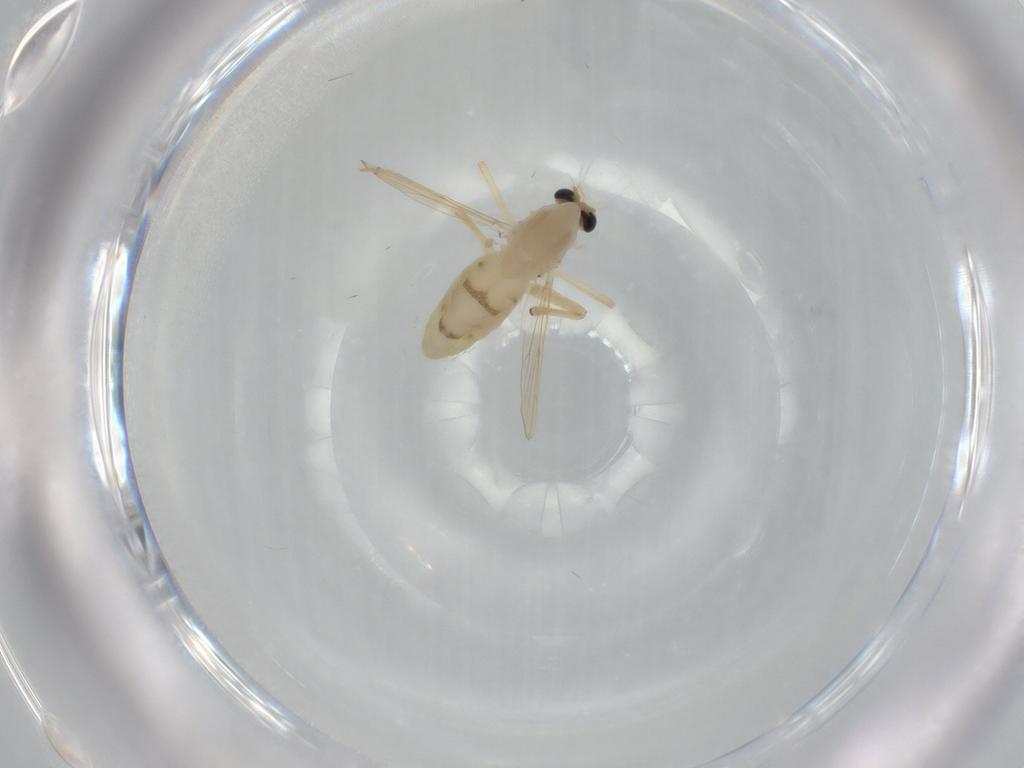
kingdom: Animalia
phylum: Arthropoda
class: Insecta
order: Diptera
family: Chironomidae
